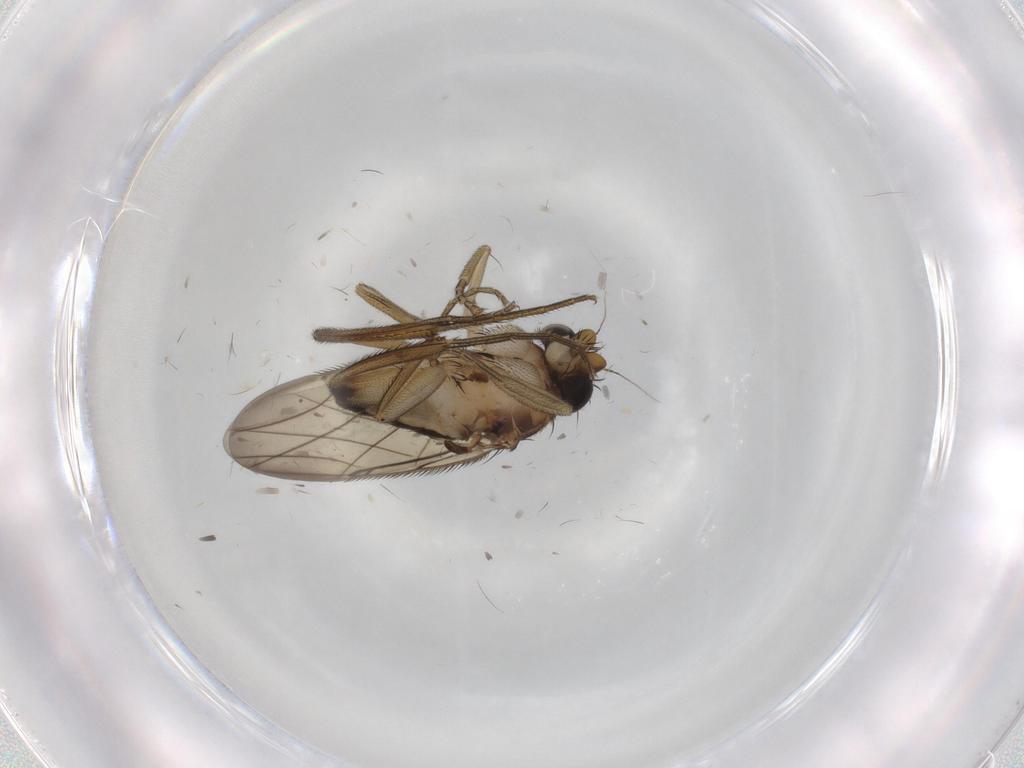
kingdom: Animalia
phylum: Arthropoda
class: Insecta
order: Diptera
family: Phoridae
